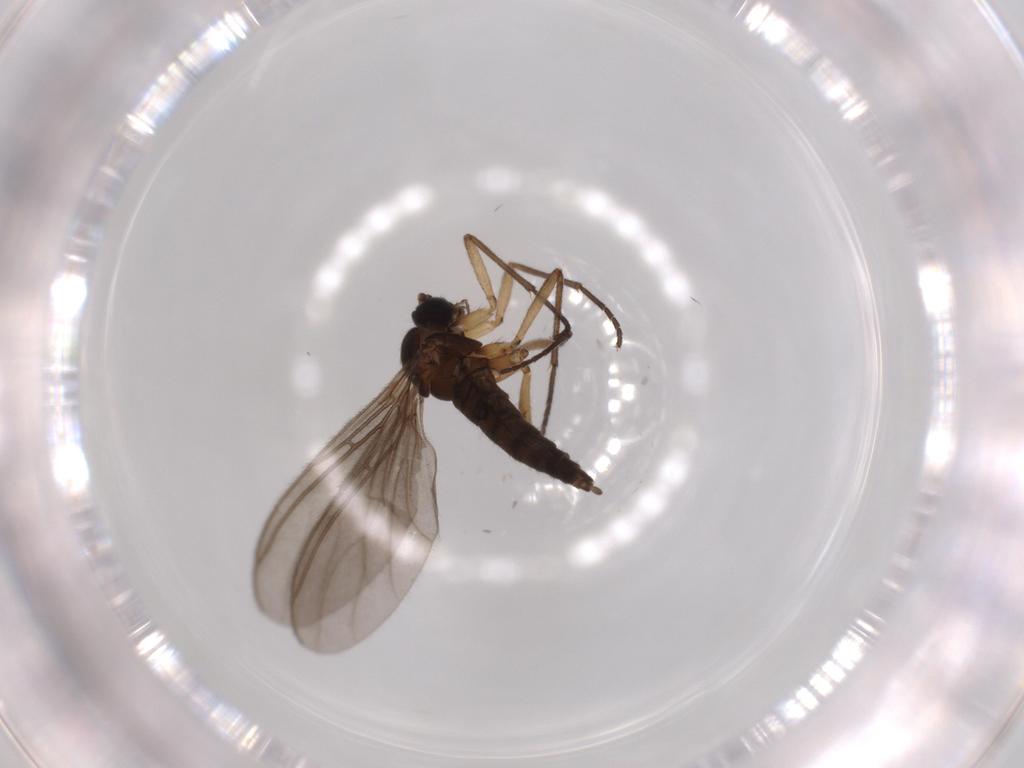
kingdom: Animalia
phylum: Arthropoda
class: Insecta
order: Diptera
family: Sciaridae
